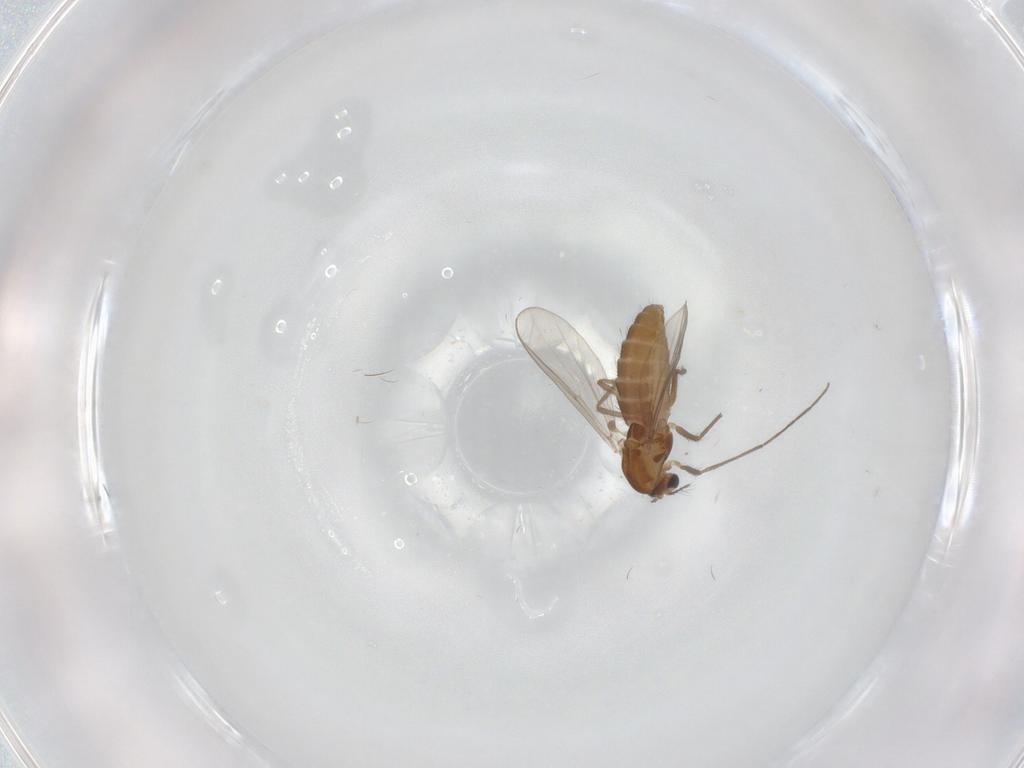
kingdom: Animalia
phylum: Arthropoda
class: Insecta
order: Diptera
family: Chironomidae
